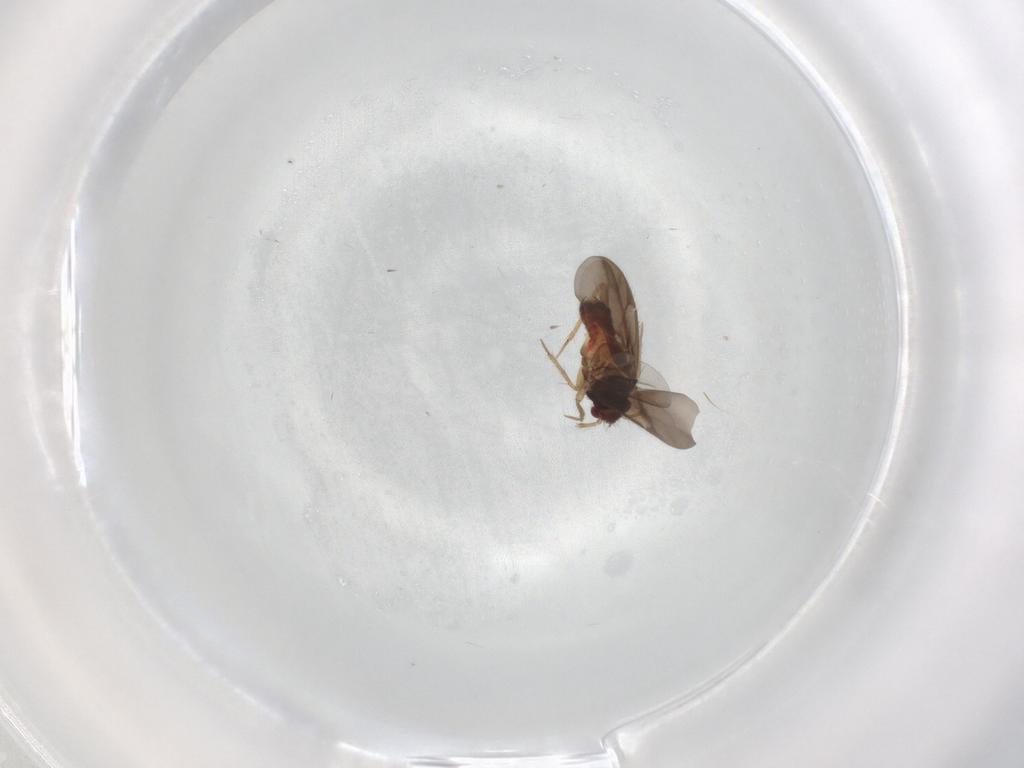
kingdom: Animalia
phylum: Arthropoda
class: Insecta
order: Hemiptera
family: Ceratocombidae
